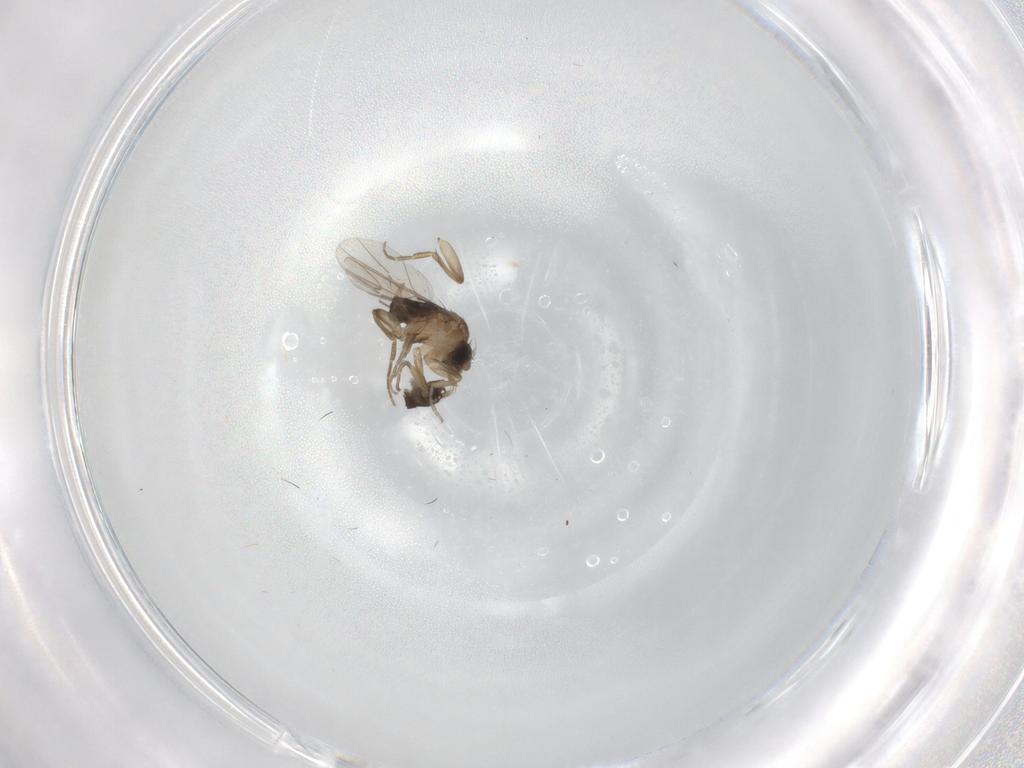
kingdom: Animalia
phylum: Arthropoda
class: Insecta
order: Diptera
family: Chironomidae
